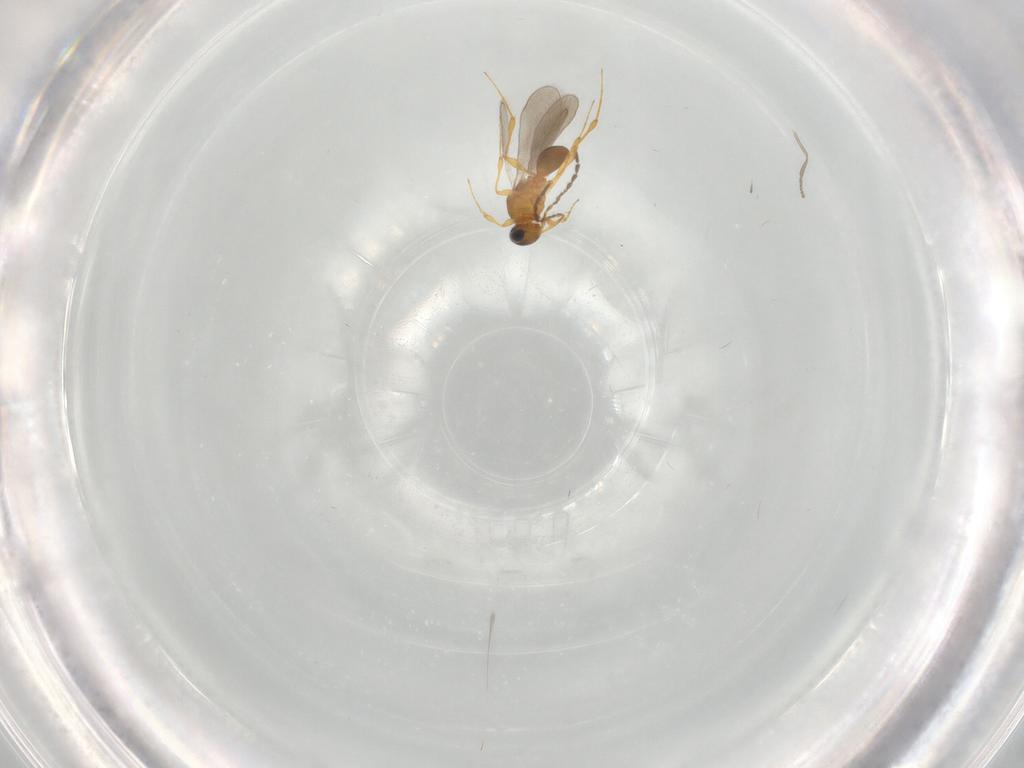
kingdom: Animalia
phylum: Arthropoda
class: Insecta
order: Hymenoptera
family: Platygastridae
